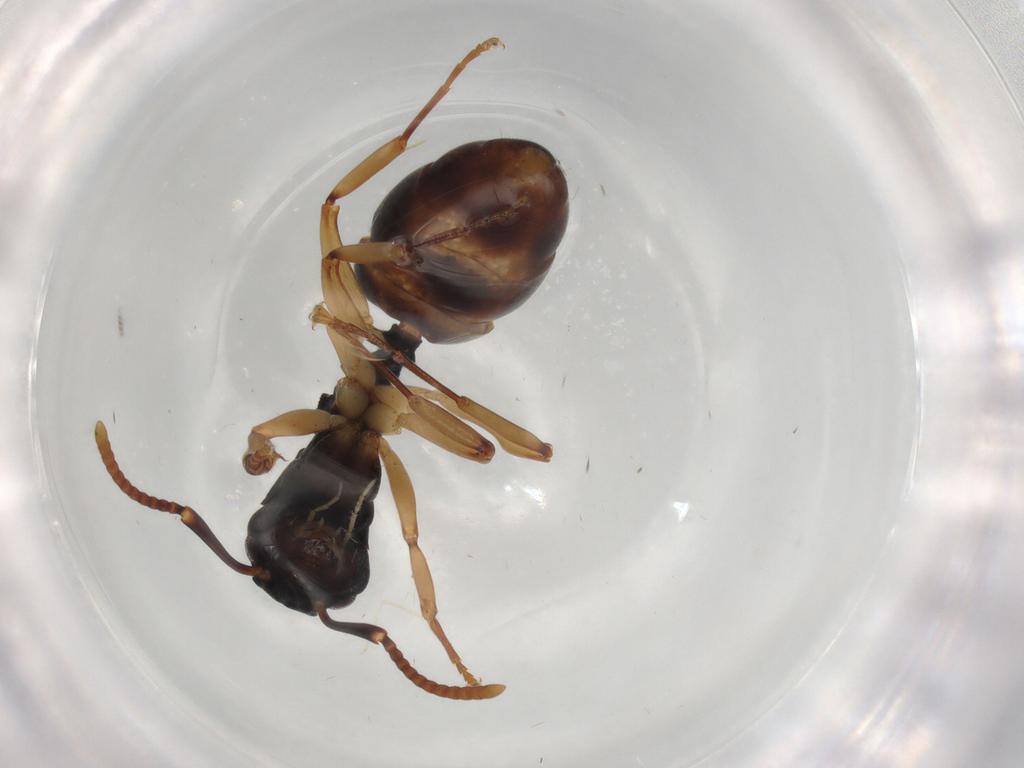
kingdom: Animalia
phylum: Arthropoda
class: Insecta
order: Hymenoptera
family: Formicidae
